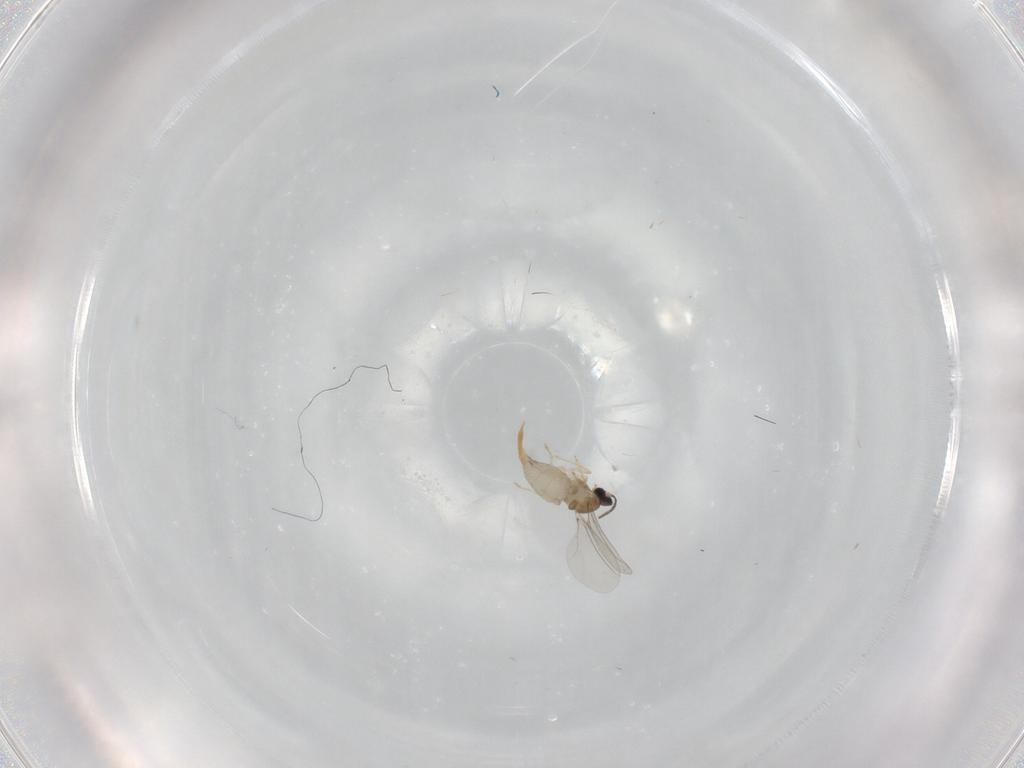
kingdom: Animalia
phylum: Arthropoda
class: Insecta
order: Diptera
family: Cecidomyiidae
